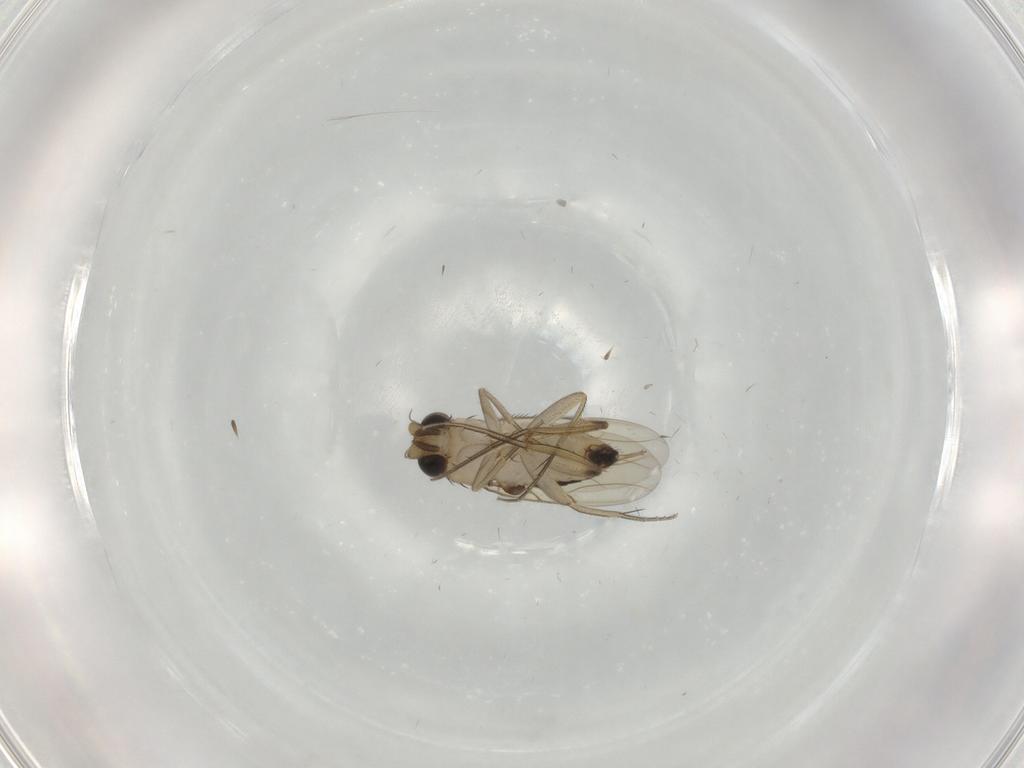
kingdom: Animalia
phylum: Arthropoda
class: Insecta
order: Diptera
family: Phoridae
